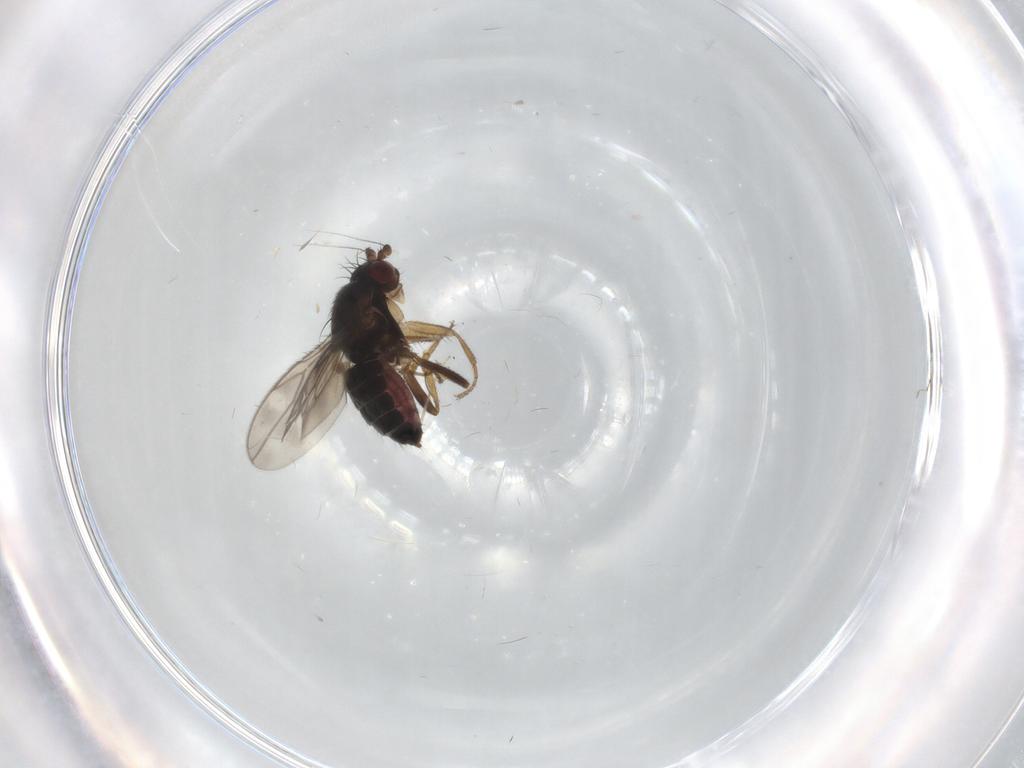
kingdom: Animalia
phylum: Arthropoda
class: Insecta
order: Diptera
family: Sphaeroceridae
